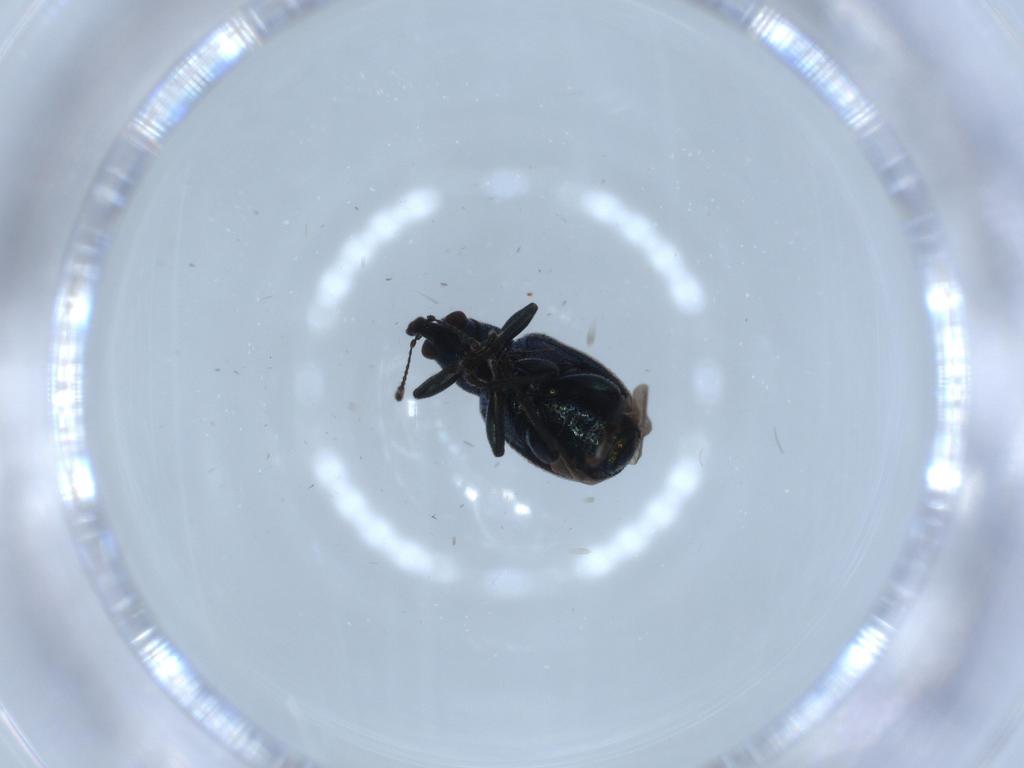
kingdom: Animalia
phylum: Arthropoda
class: Insecta
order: Coleoptera
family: Attelabidae
